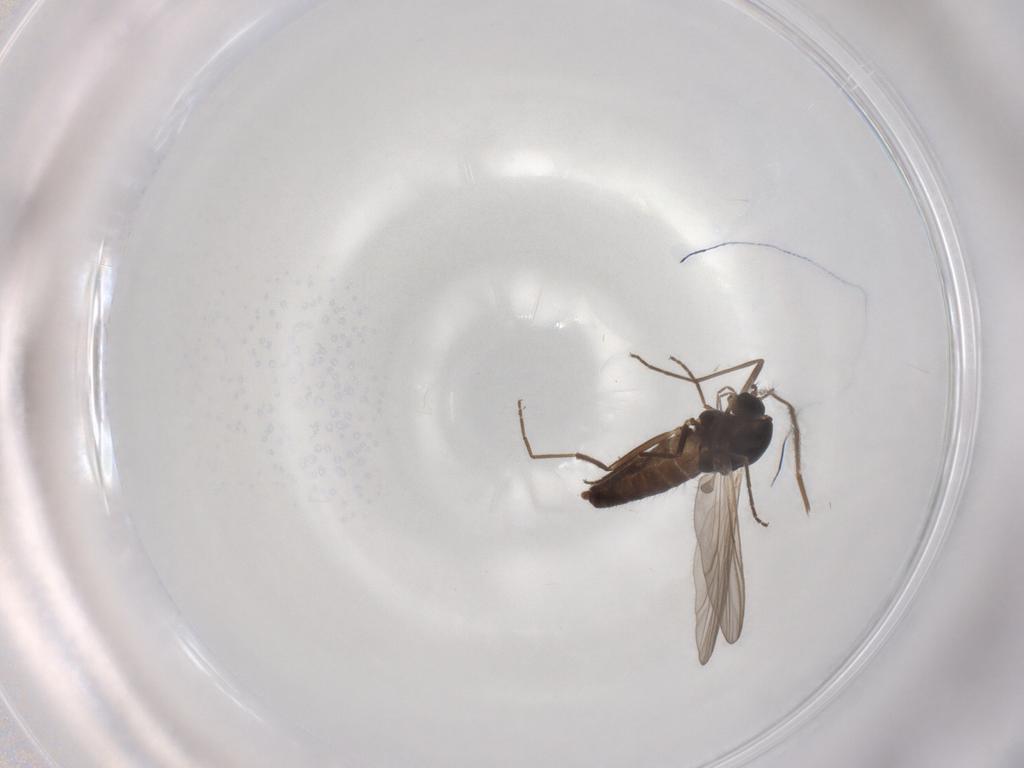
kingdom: Animalia
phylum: Arthropoda
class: Insecta
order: Diptera
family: Chironomidae
